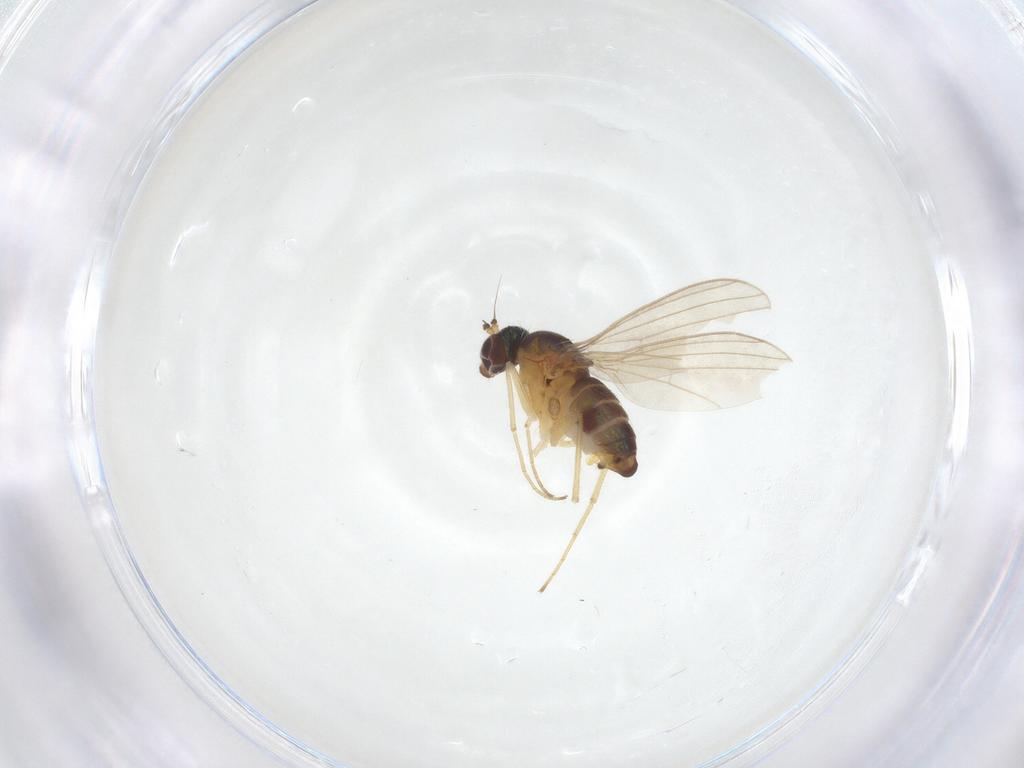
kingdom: Animalia
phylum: Arthropoda
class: Insecta
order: Diptera
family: Dolichopodidae
